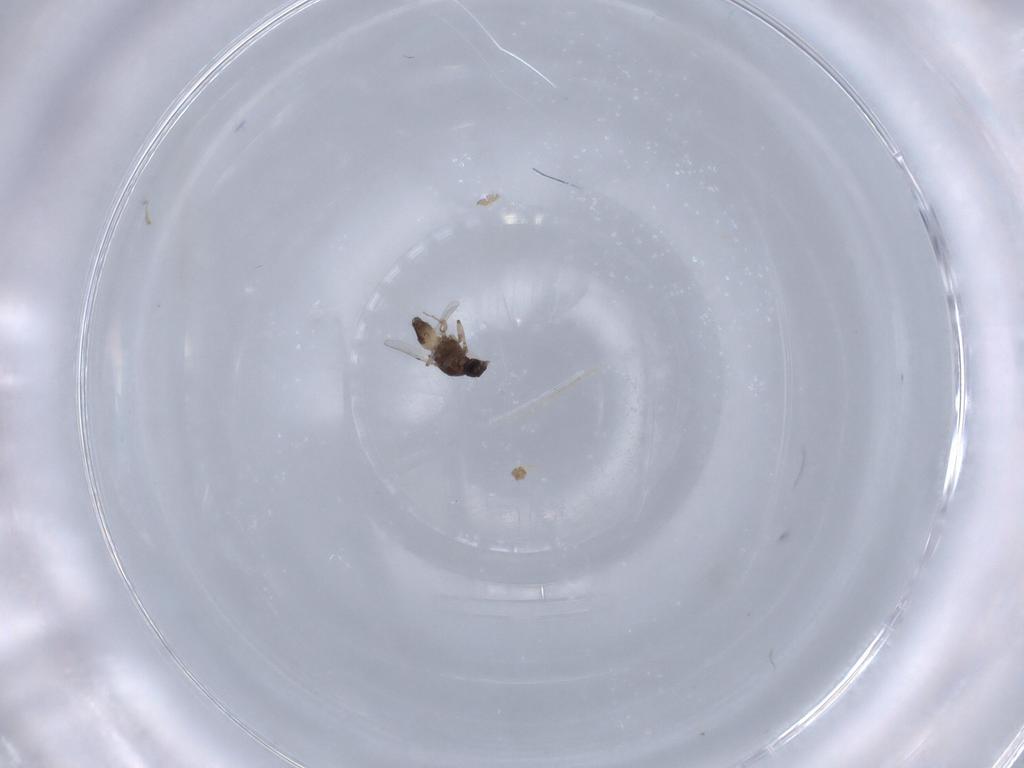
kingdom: Animalia
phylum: Arthropoda
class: Insecta
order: Diptera
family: Ceratopogonidae
